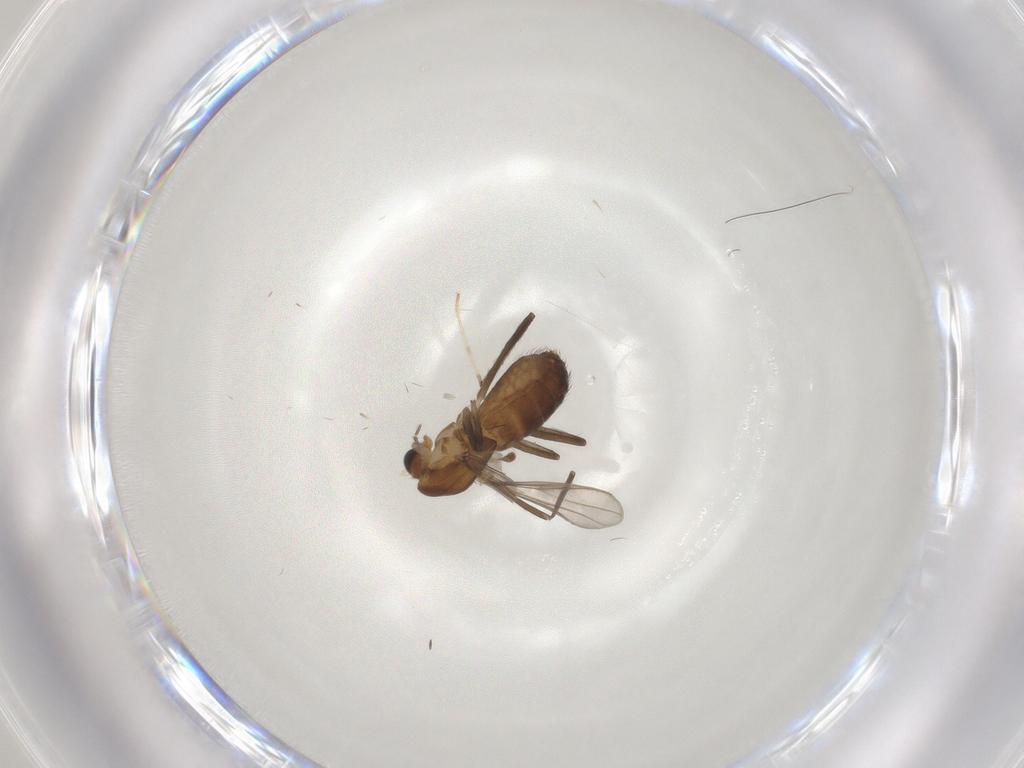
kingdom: Animalia
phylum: Arthropoda
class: Insecta
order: Diptera
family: Chironomidae
